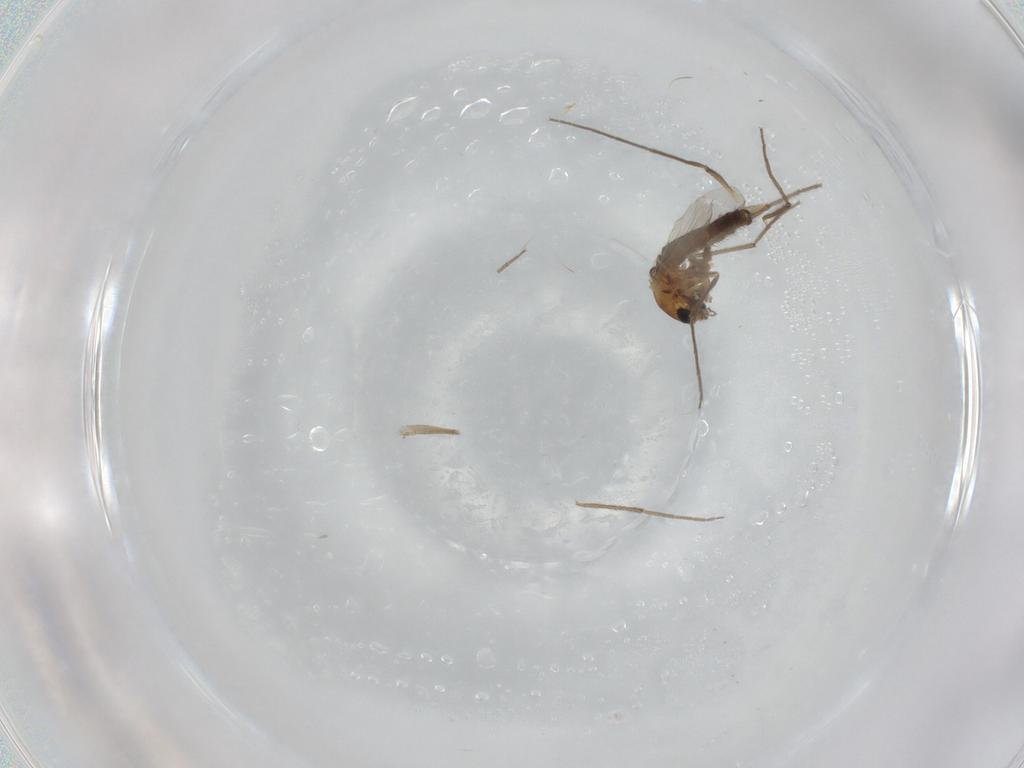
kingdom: Animalia
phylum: Arthropoda
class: Insecta
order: Diptera
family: Chironomidae
